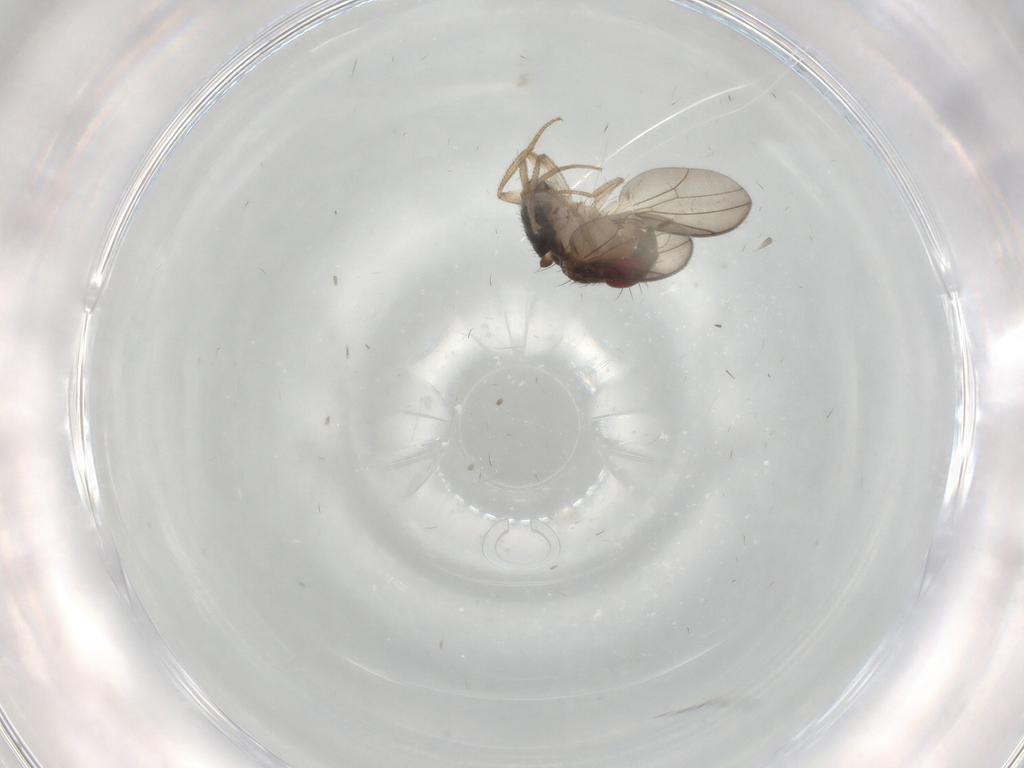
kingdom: Animalia
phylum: Arthropoda
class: Insecta
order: Diptera
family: Drosophilidae
